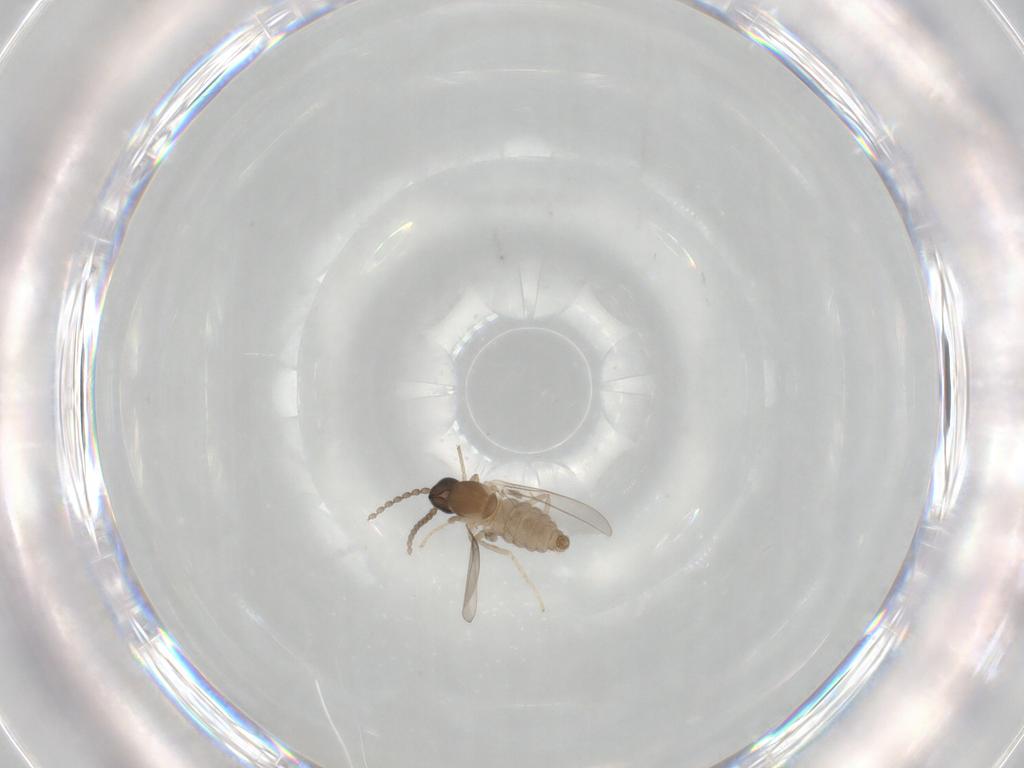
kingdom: Animalia
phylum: Arthropoda
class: Insecta
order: Diptera
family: Cecidomyiidae
